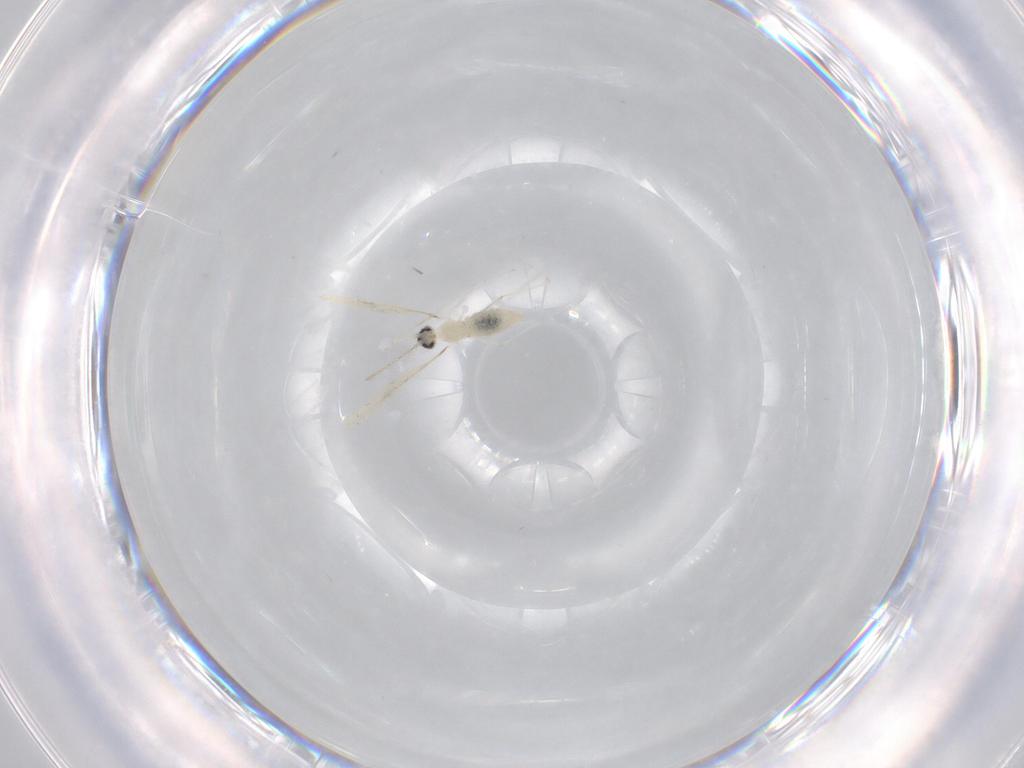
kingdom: Animalia
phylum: Arthropoda
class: Insecta
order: Diptera
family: Cecidomyiidae
